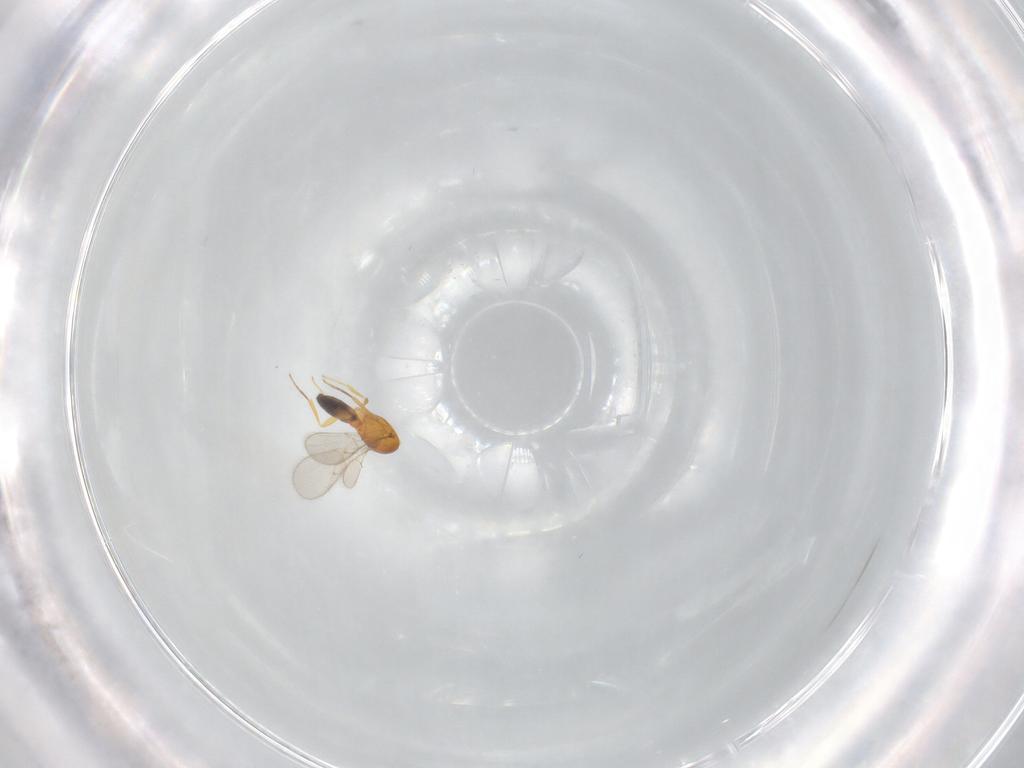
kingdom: Animalia
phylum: Arthropoda
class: Insecta
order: Hymenoptera
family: Scelionidae
